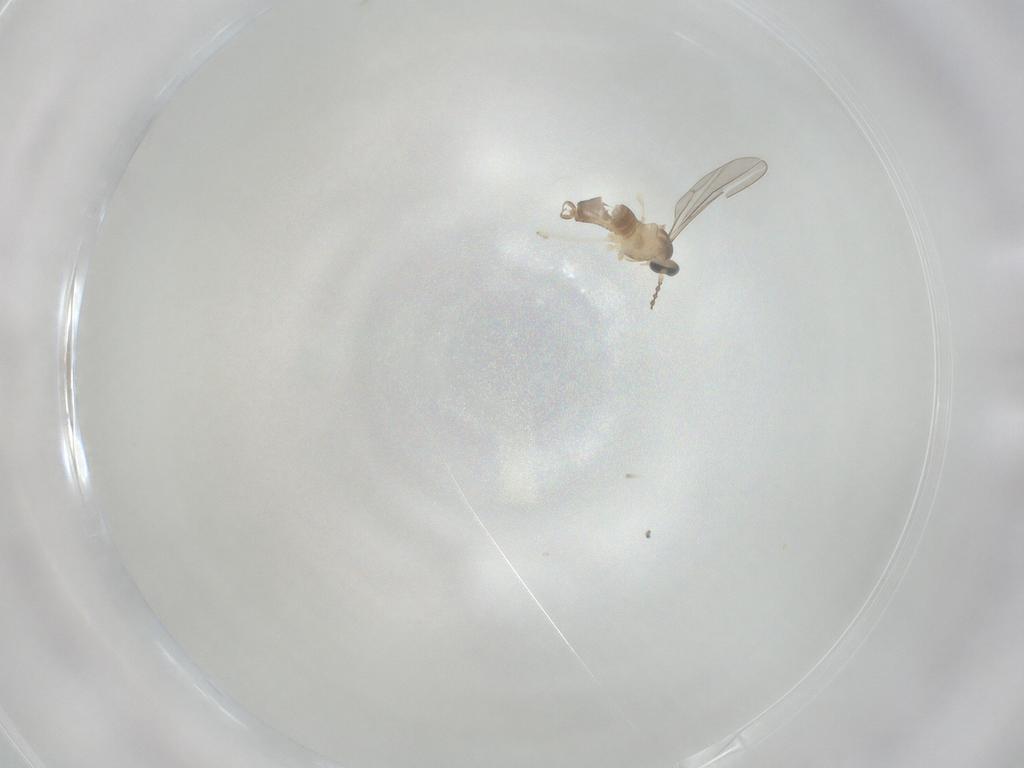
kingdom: Animalia
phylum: Arthropoda
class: Insecta
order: Diptera
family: Cecidomyiidae
